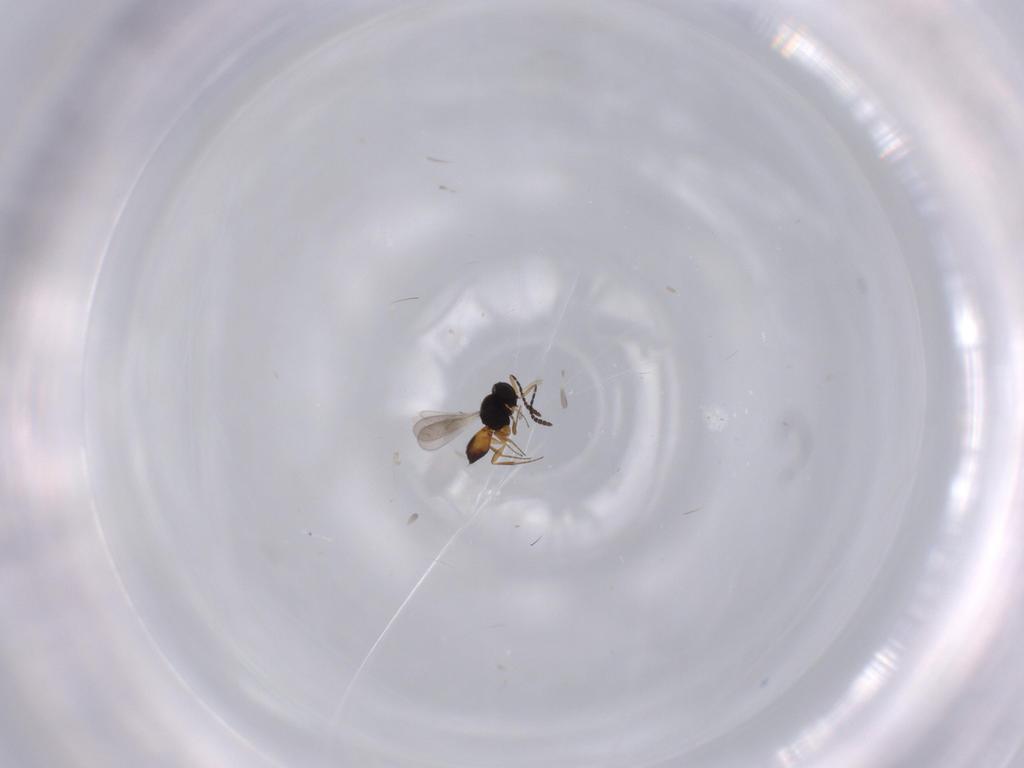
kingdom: Animalia
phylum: Arthropoda
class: Insecta
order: Hymenoptera
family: Scelionidae
